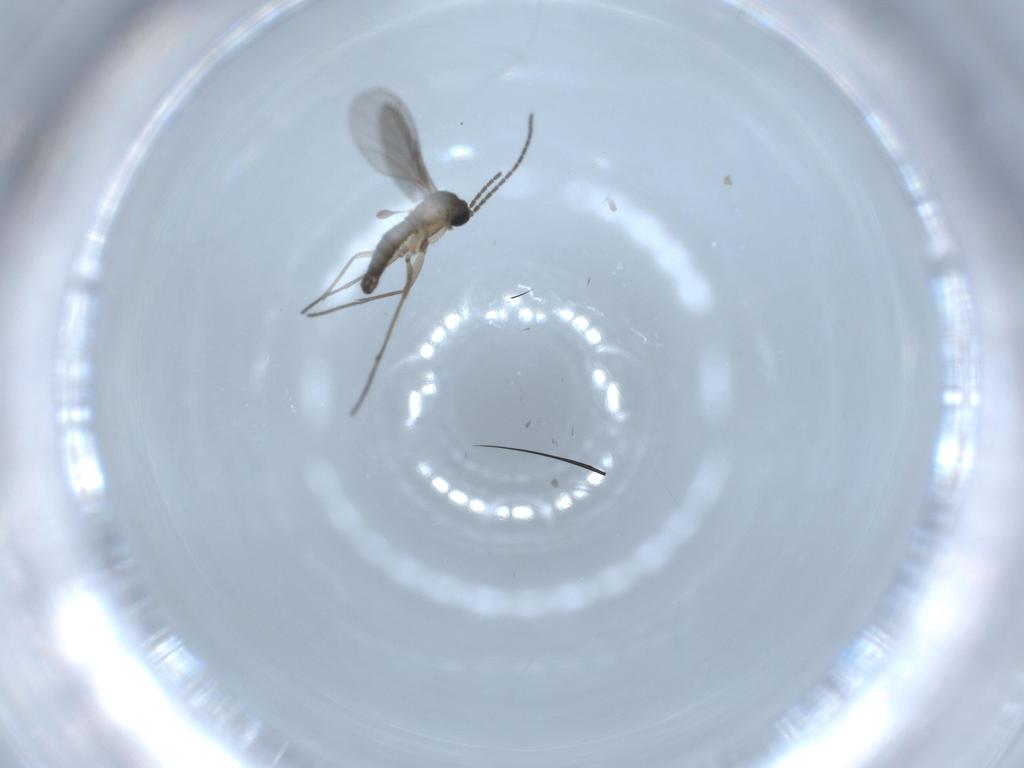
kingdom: Animalia
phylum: Arthropoda
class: Insecta
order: Diptera
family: Sciaridae
